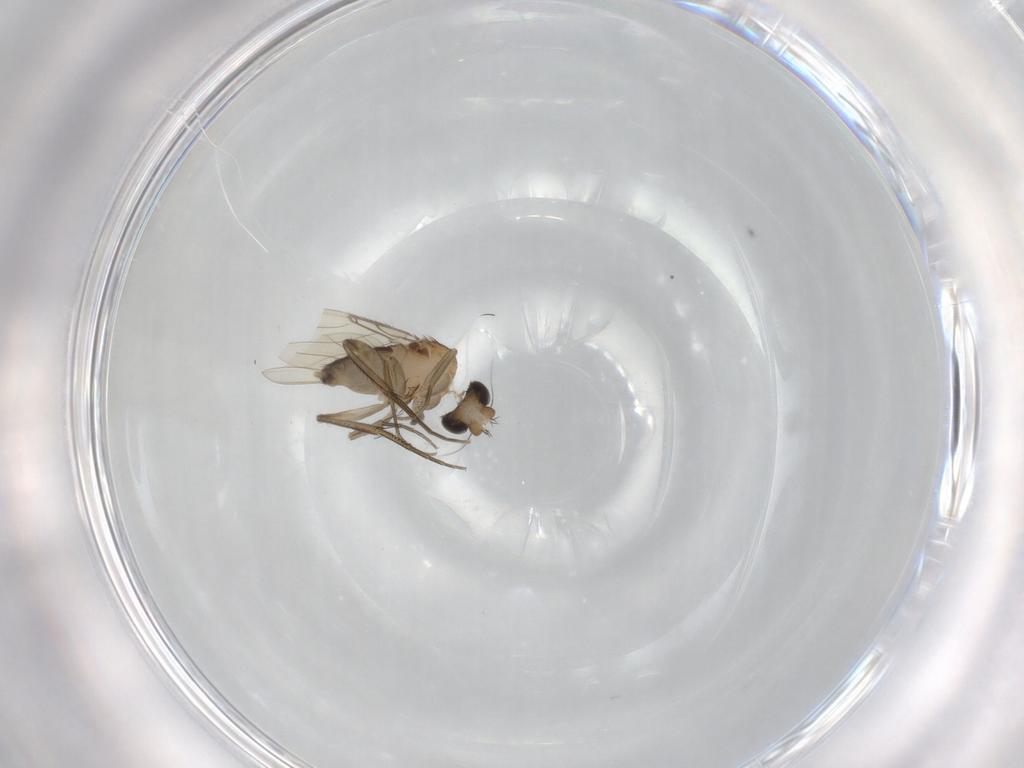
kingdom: Animalia
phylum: Arthropoda
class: Insecta
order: Diptera
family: Phoridae
